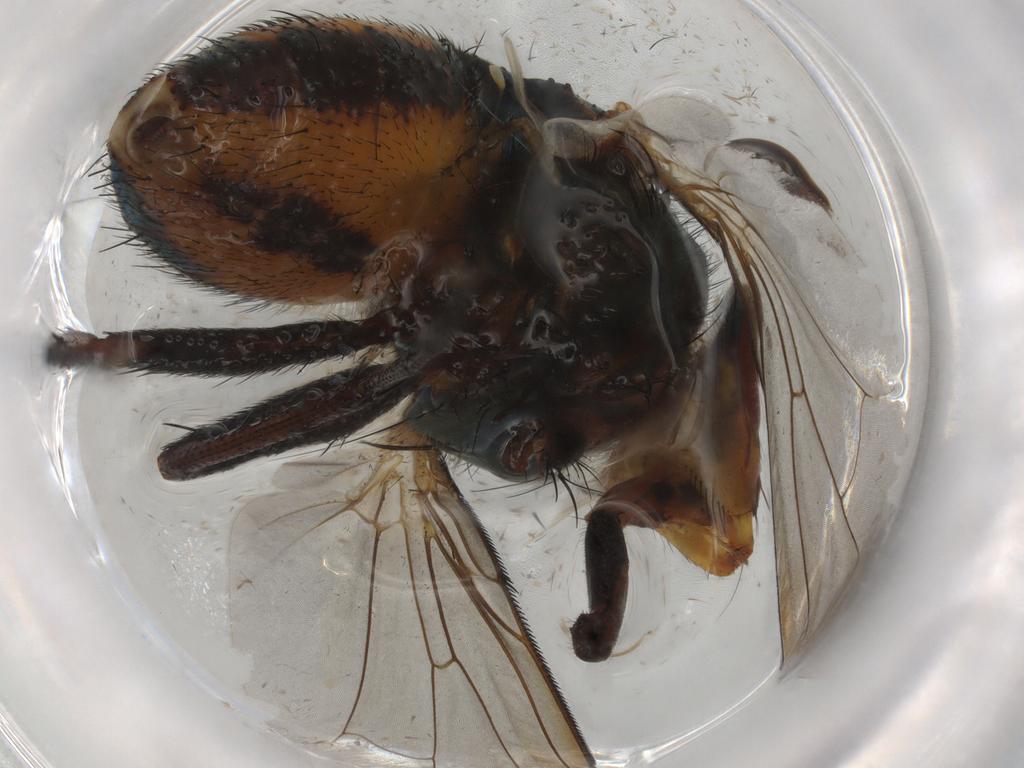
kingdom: Animalia
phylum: Arthropoda
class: Insecta
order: Diptera
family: Calliphoridae
